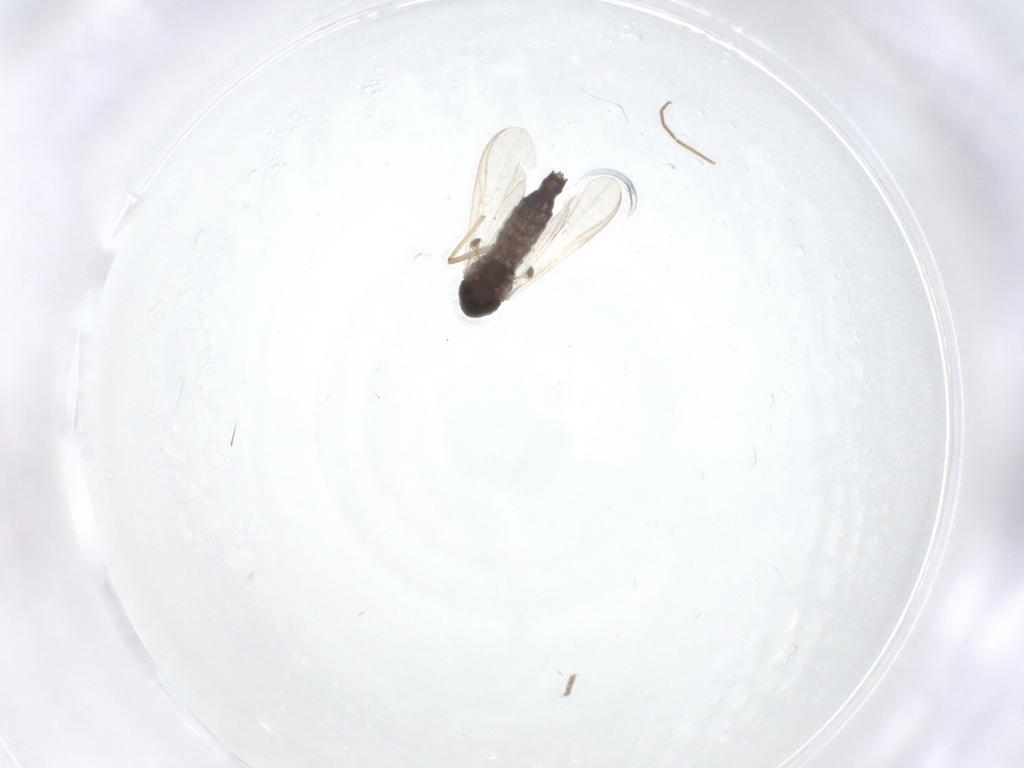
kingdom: Animalia
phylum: Arthropoda
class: Insecta
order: Diptera
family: Chironomidae
